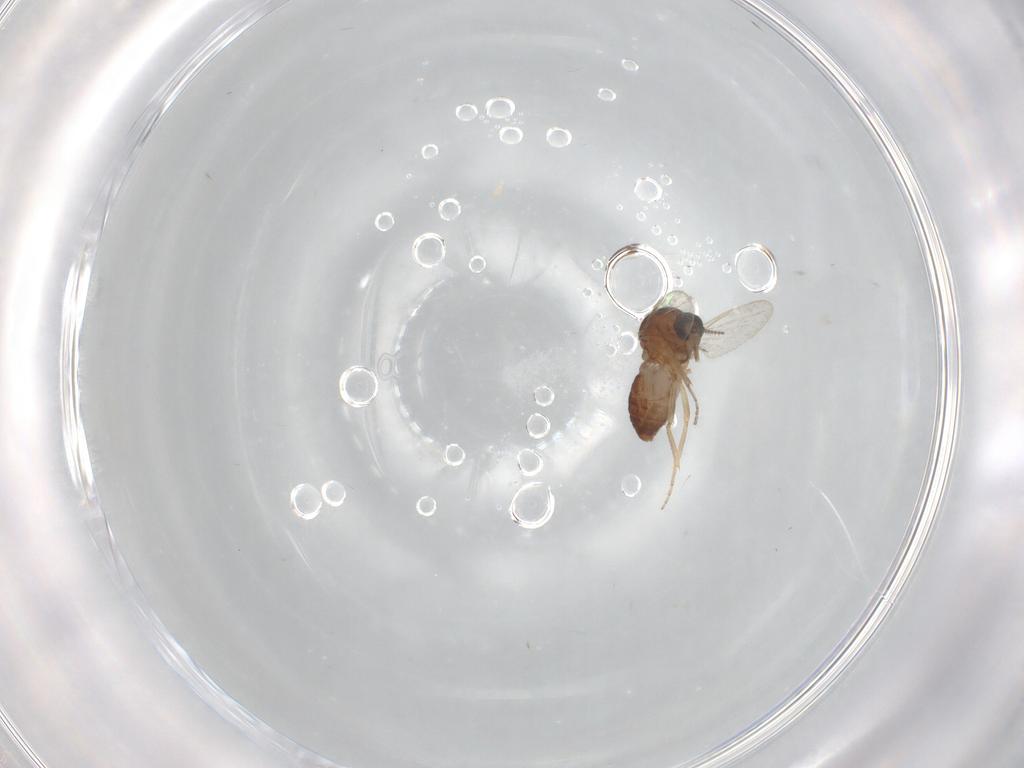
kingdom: Animalia
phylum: Arthropoda
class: Insecta
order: Diptera
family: Ceratopogonidae
